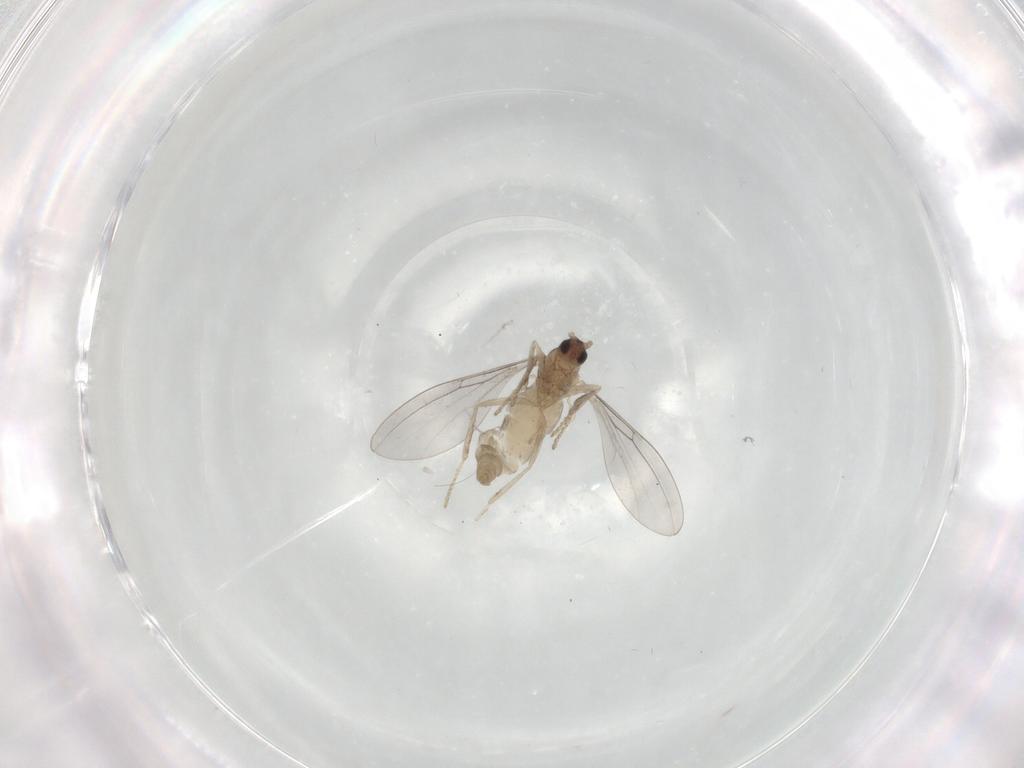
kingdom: Animalia
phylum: Arthropoda
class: Insecta
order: Diptera
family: Cecidomyiidae
